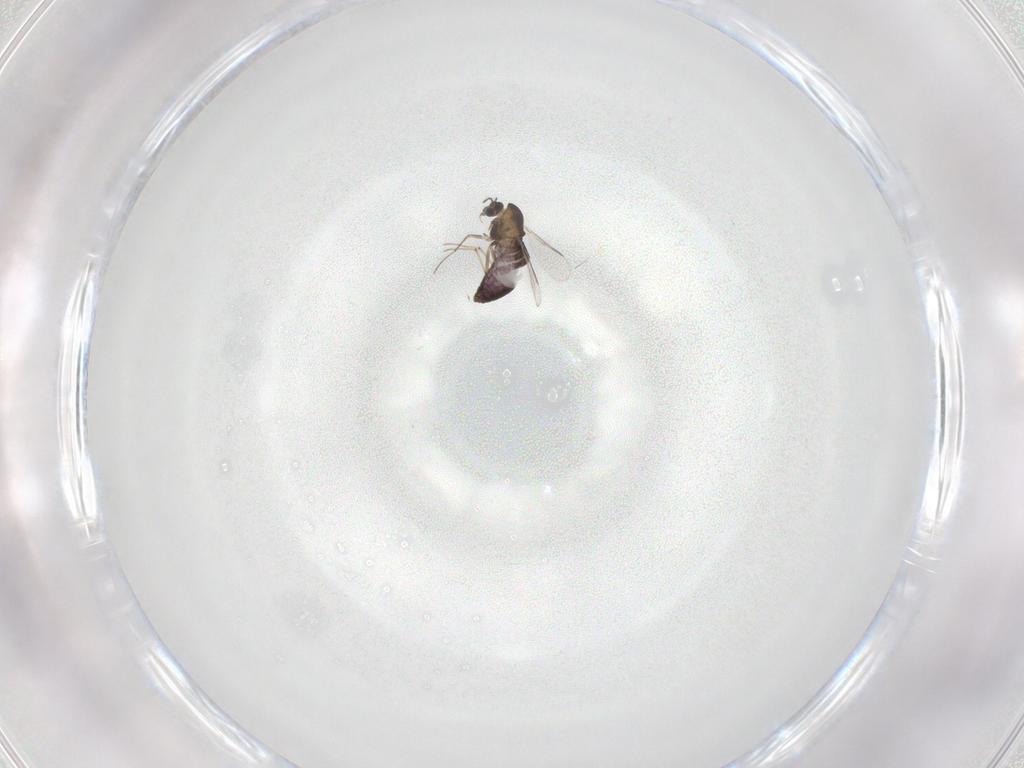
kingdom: Animalia
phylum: Arthropoda
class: Insecta
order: Diptera
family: Chironomidae
